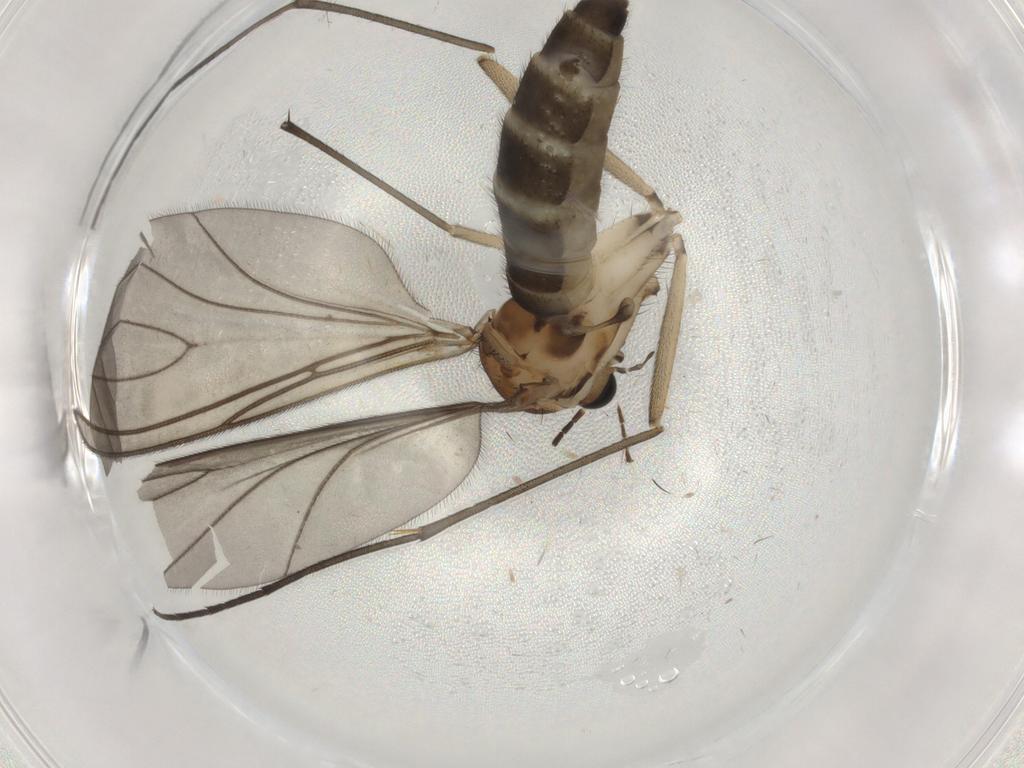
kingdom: Animalia
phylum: Arthropoda
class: Insecta
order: Diptera
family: Sciaridae
